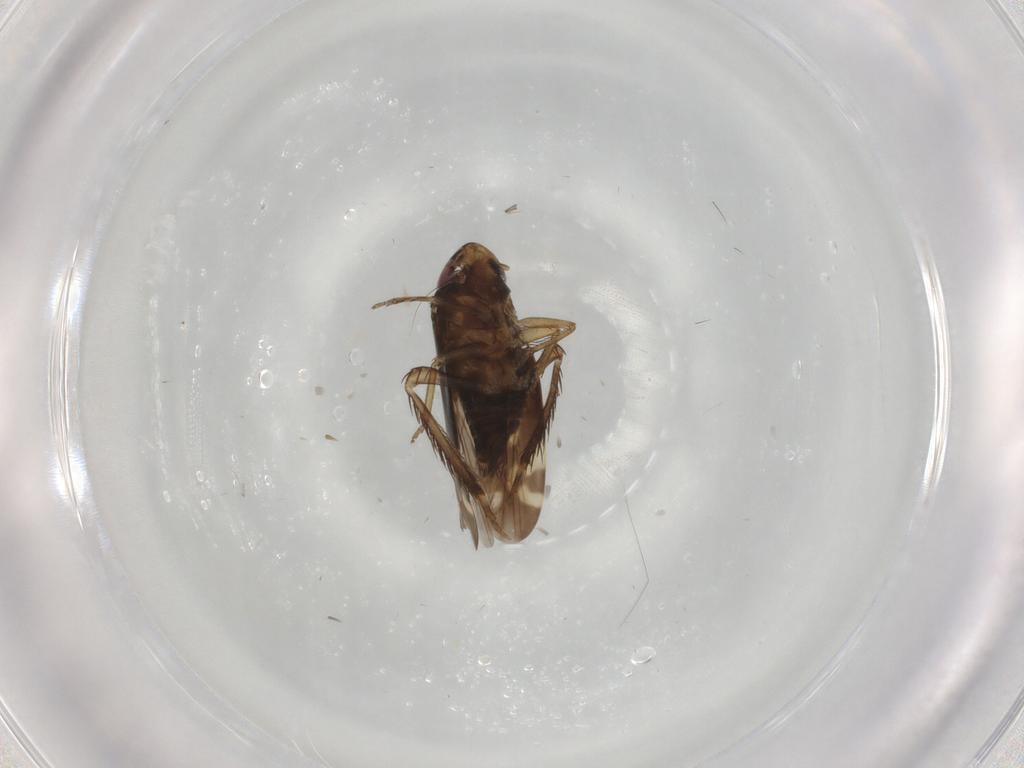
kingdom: Animalia
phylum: Arthropoda
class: Insecta
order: Hemiptera
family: Cicadellidae
